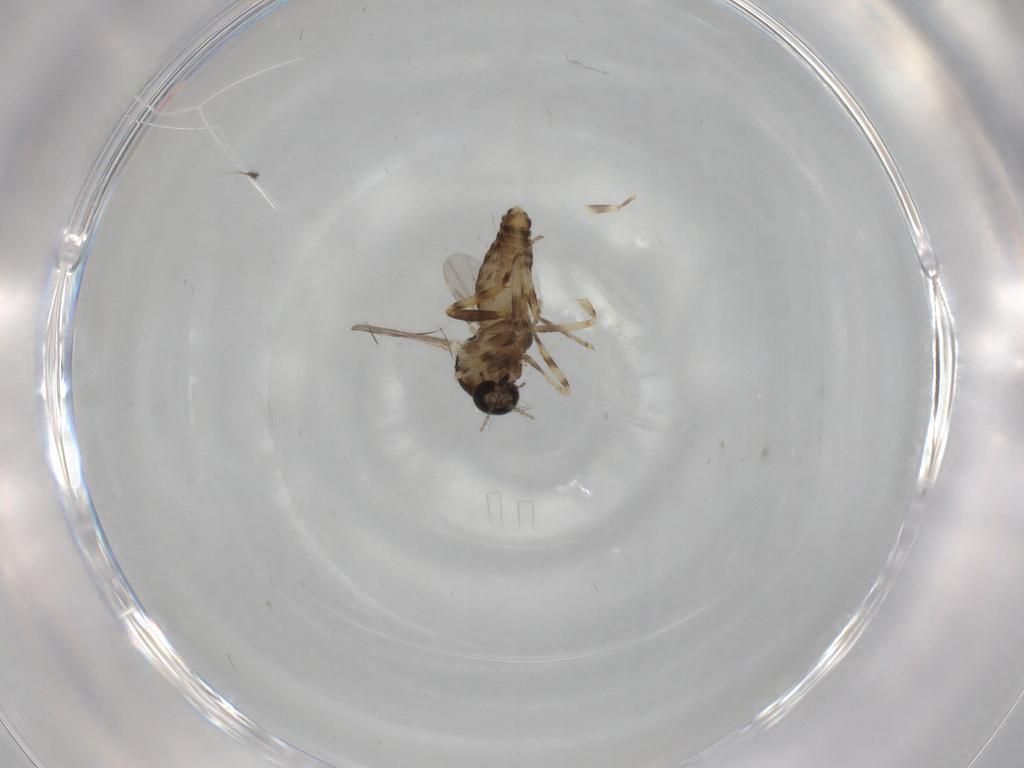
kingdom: Animalia
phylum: Arthropoda
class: Insecta
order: Diptera
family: Ceratopogonidae
